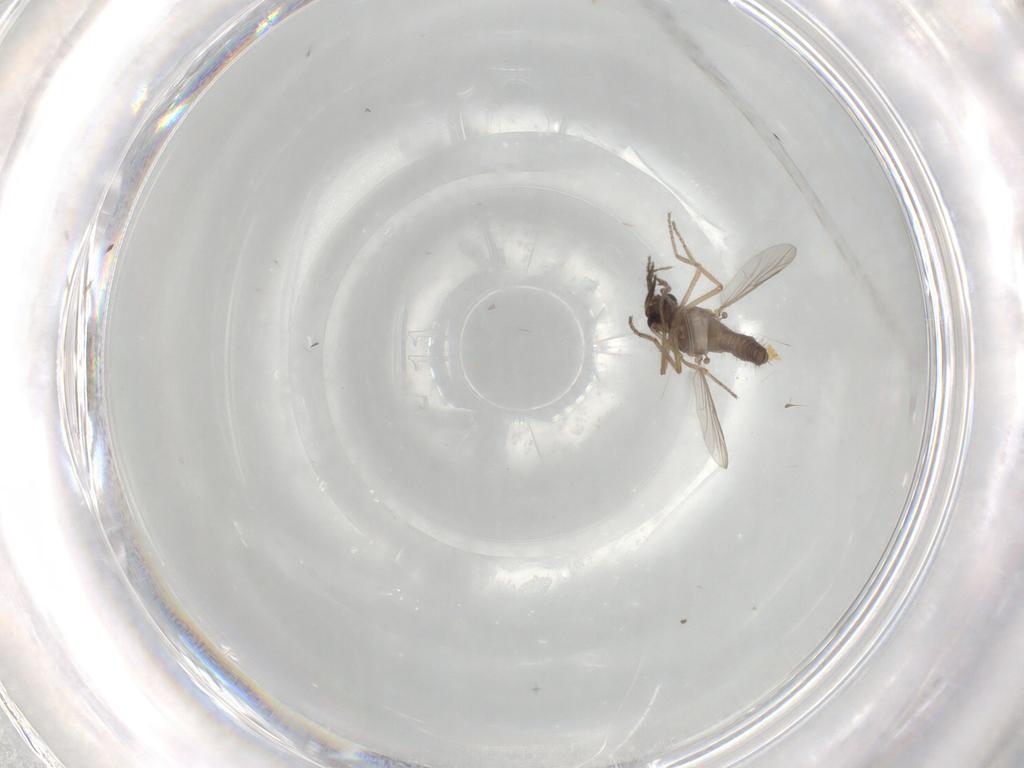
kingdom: Animalia
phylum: Arthropoda
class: Insecta
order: Diptera
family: Ceratopogonidae
